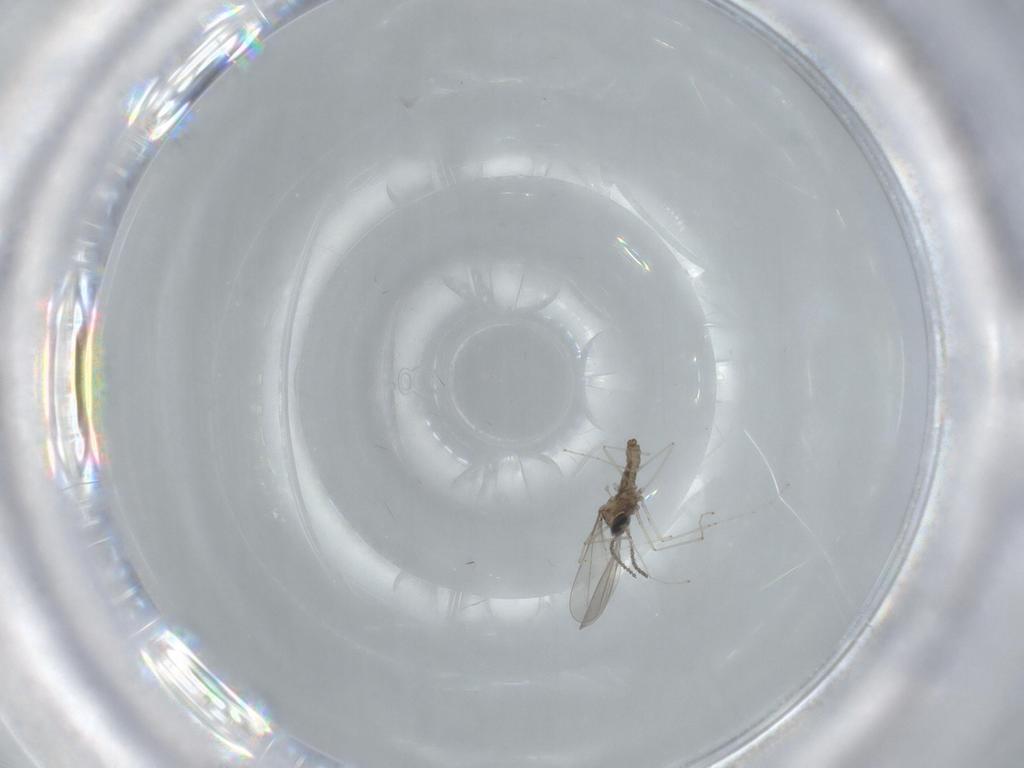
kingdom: Animalia
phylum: Arthropoda
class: Insecta
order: Diptera
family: Cecidomyiidae
